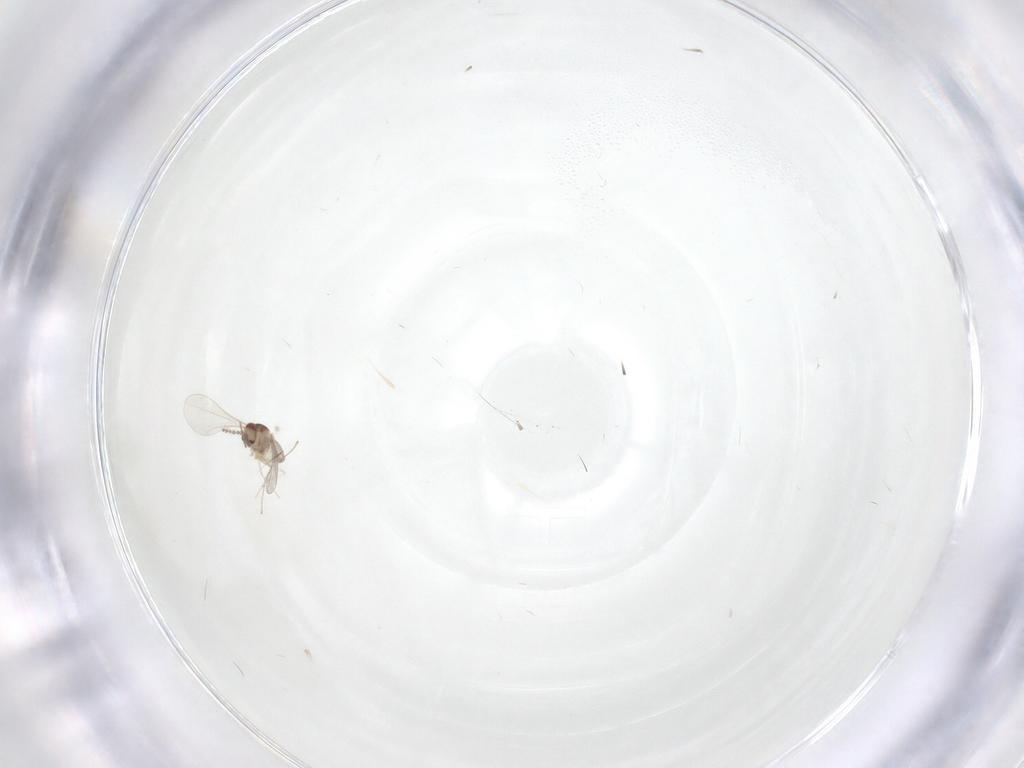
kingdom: Animalia
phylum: Arthropoda
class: Insecta
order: Diptera
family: Chironomidae
